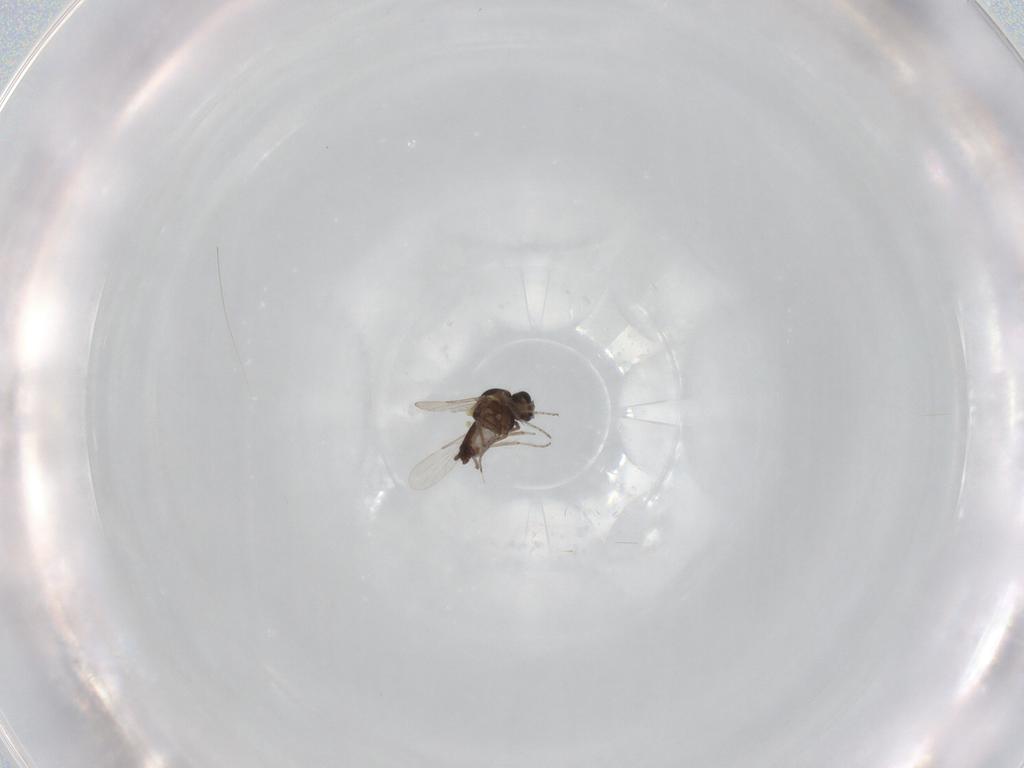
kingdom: Animalia
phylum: Arthropoda
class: Insecta
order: Diptera
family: Ceratopogonidae
